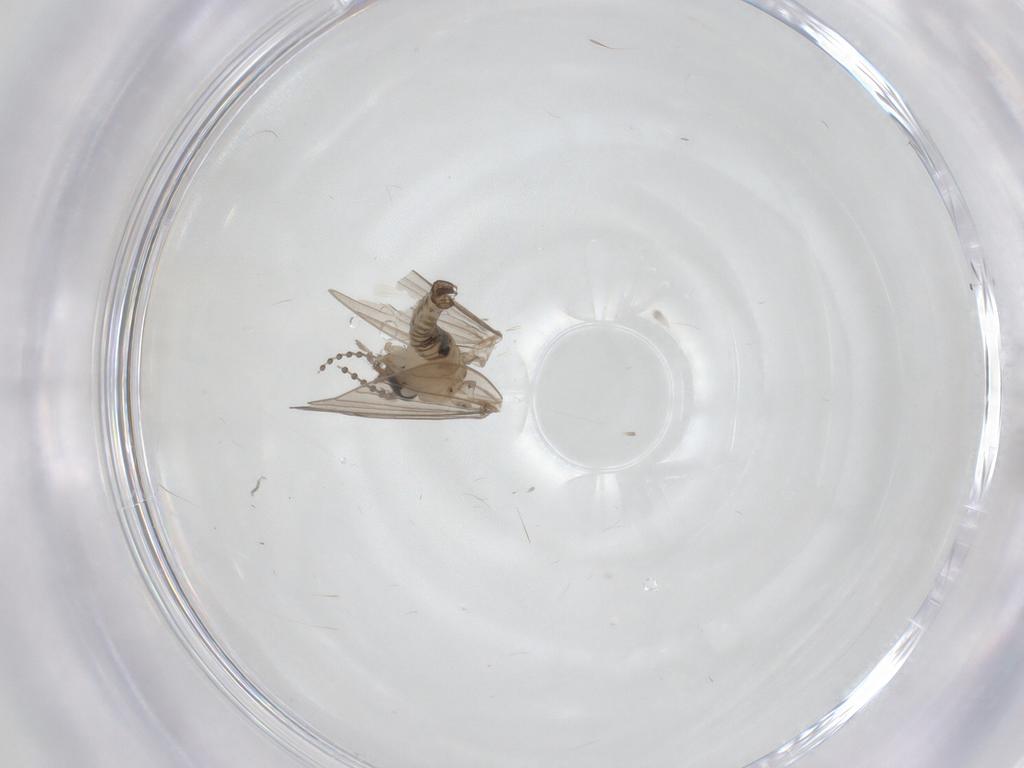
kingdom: Animalia
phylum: Arthropoda
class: Insecta
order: Diptera
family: Psychodidae
